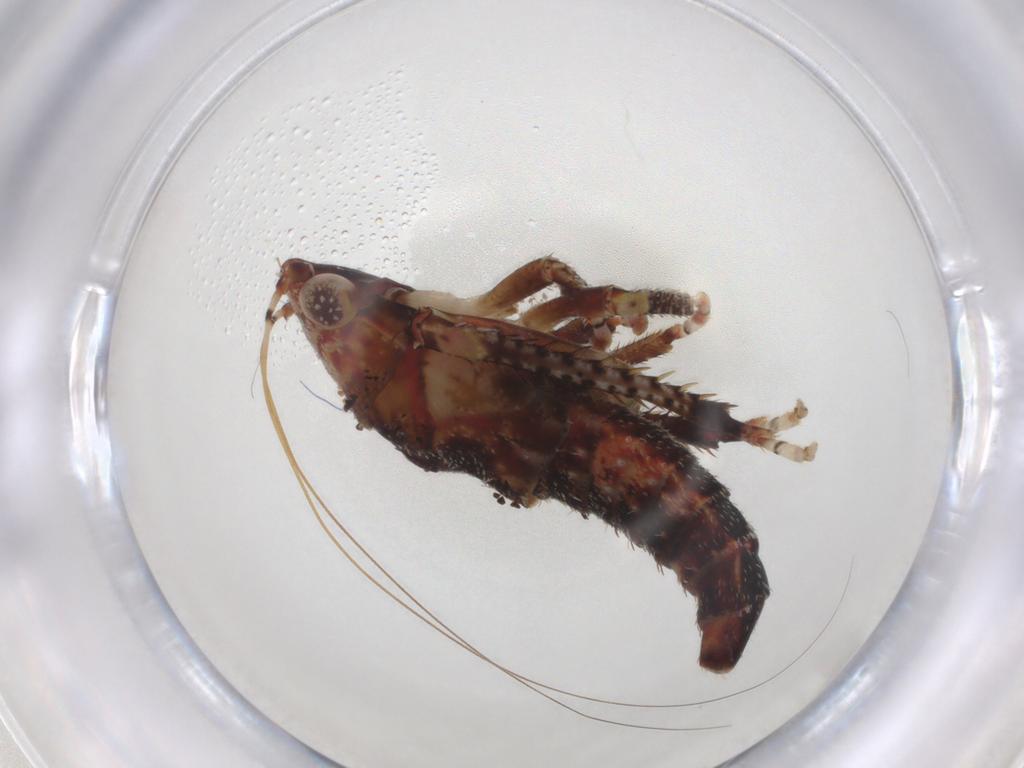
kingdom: Animalia
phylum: Arthropoda
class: Insecta
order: Hemiptera
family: Cicadellidae
